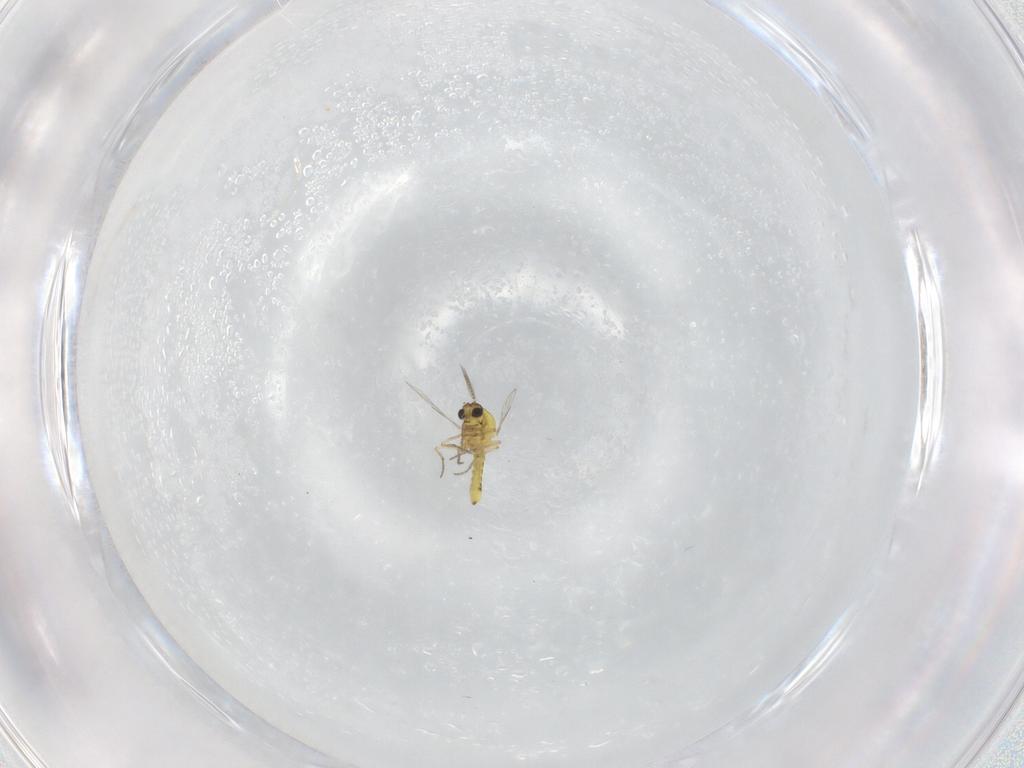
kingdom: Animalia
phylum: Arthropoda
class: Insecta
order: Diptera
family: Ceratopogonidae
